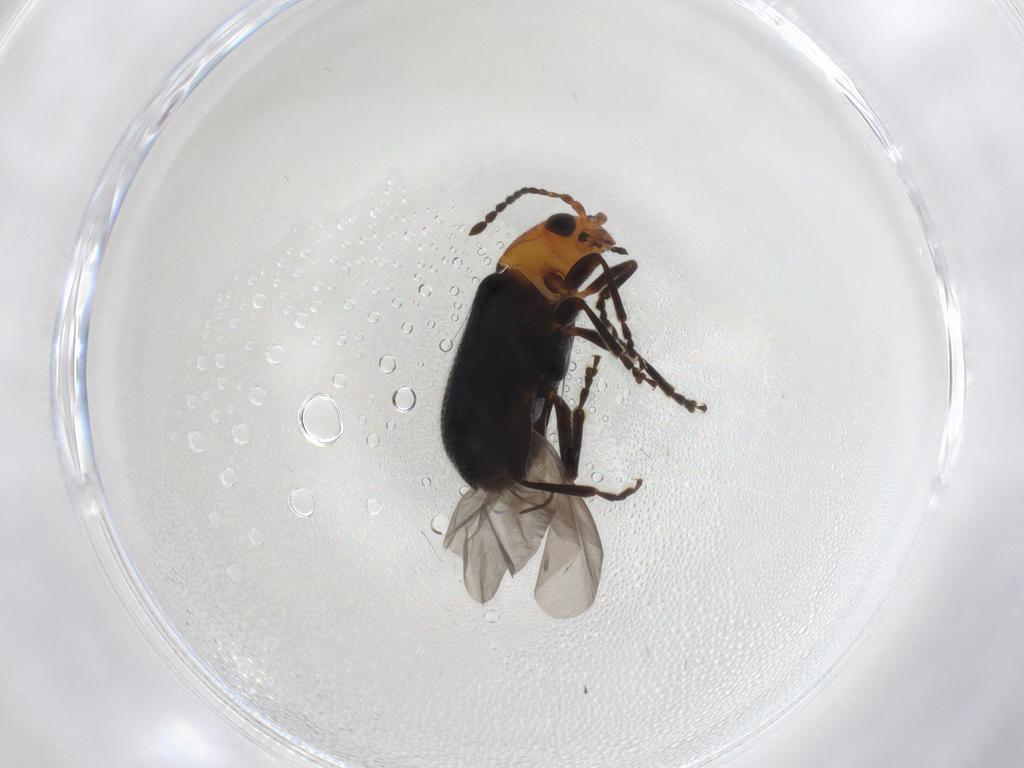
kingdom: Animalia
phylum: Arthropoda
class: Insecta
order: Coleoptera
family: Chrysomelidae
